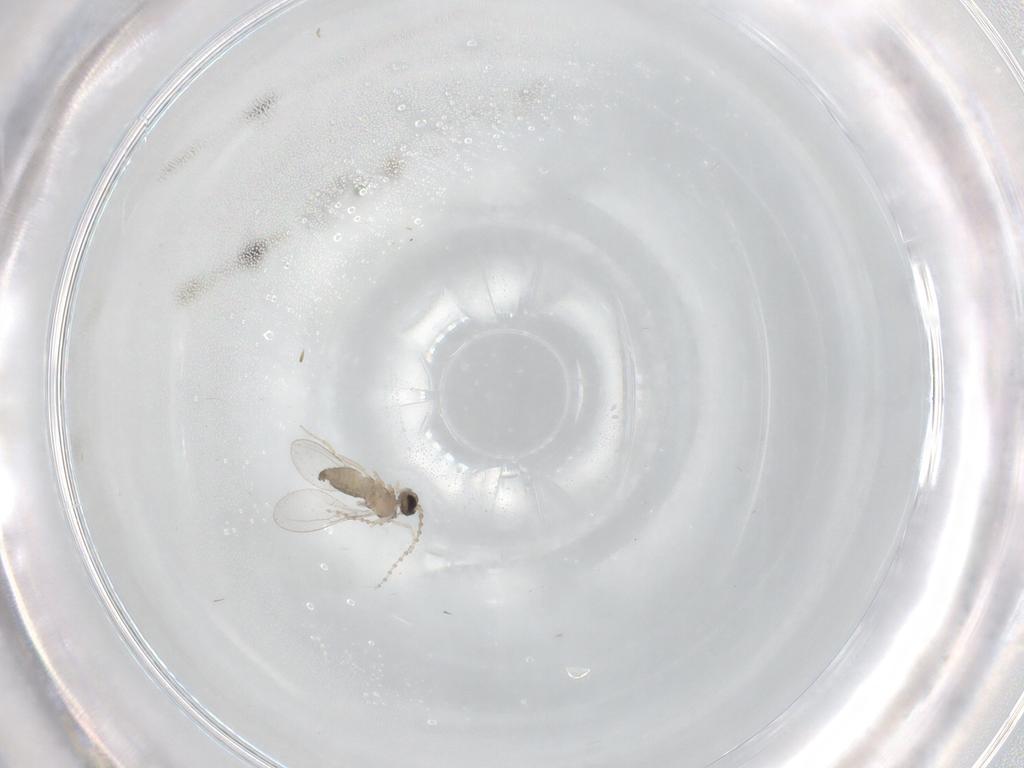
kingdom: Animalia
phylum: Arthropoda
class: Insecta
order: Diptera
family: Cecidomyiidae
